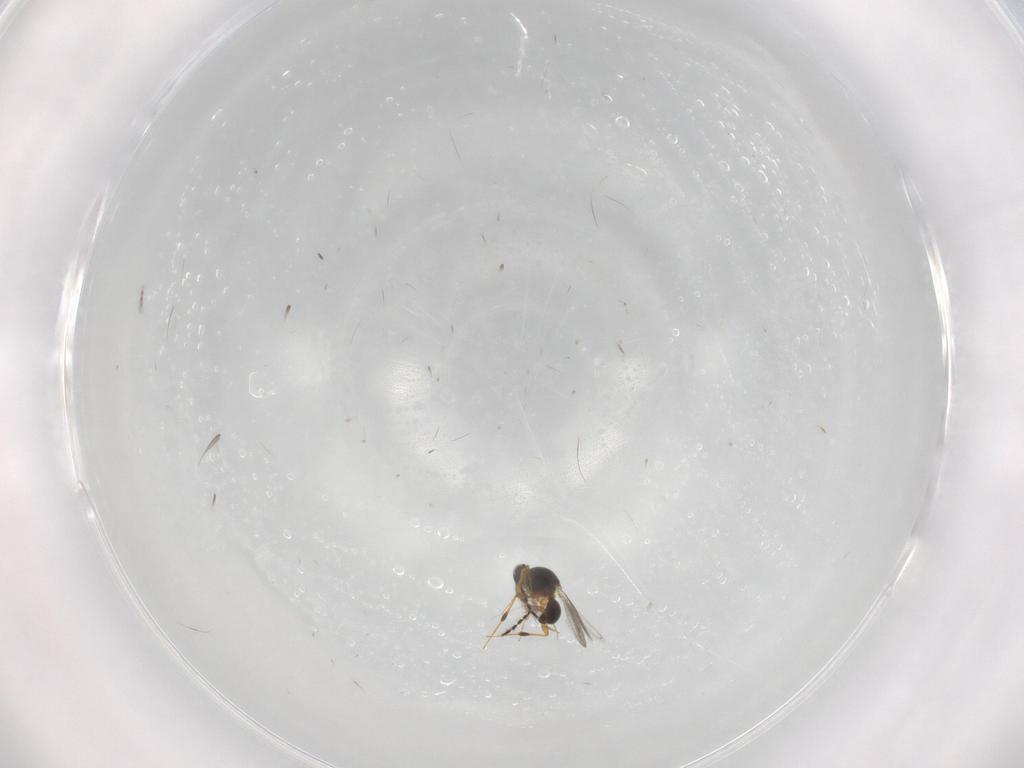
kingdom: Animalia
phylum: Arthropoda
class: Insecta
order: Hymenoptera
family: Platygastridae
